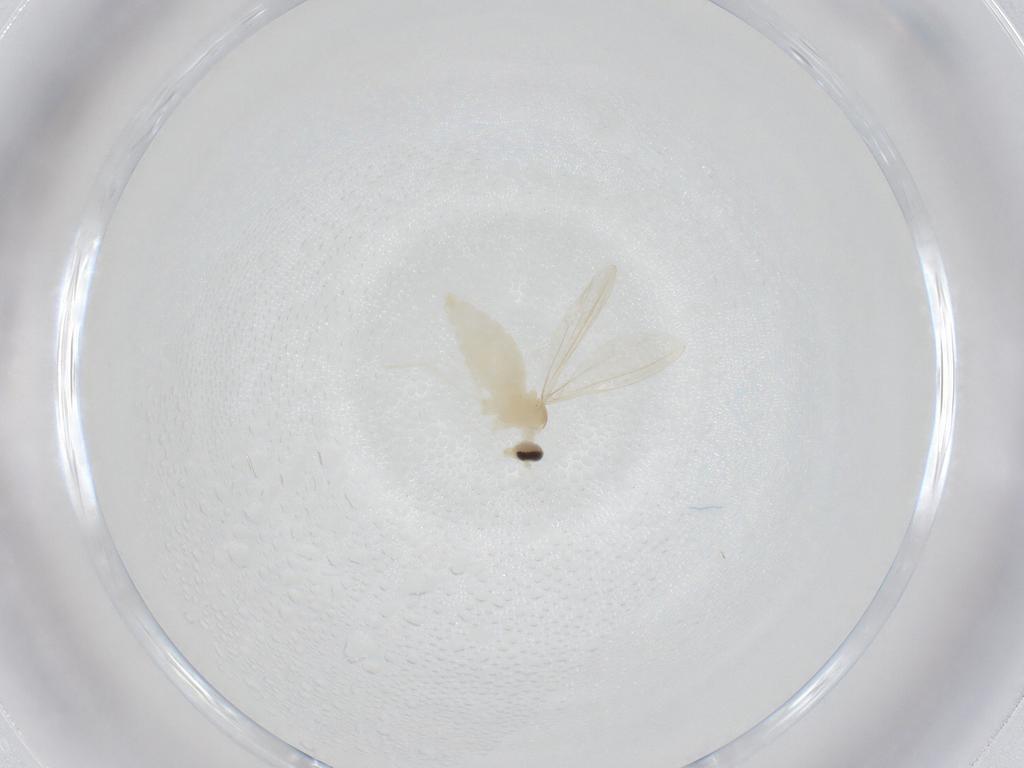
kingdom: Animalia
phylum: Arthropoda
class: Insecta
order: Diptera
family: Cecidomyiidae
